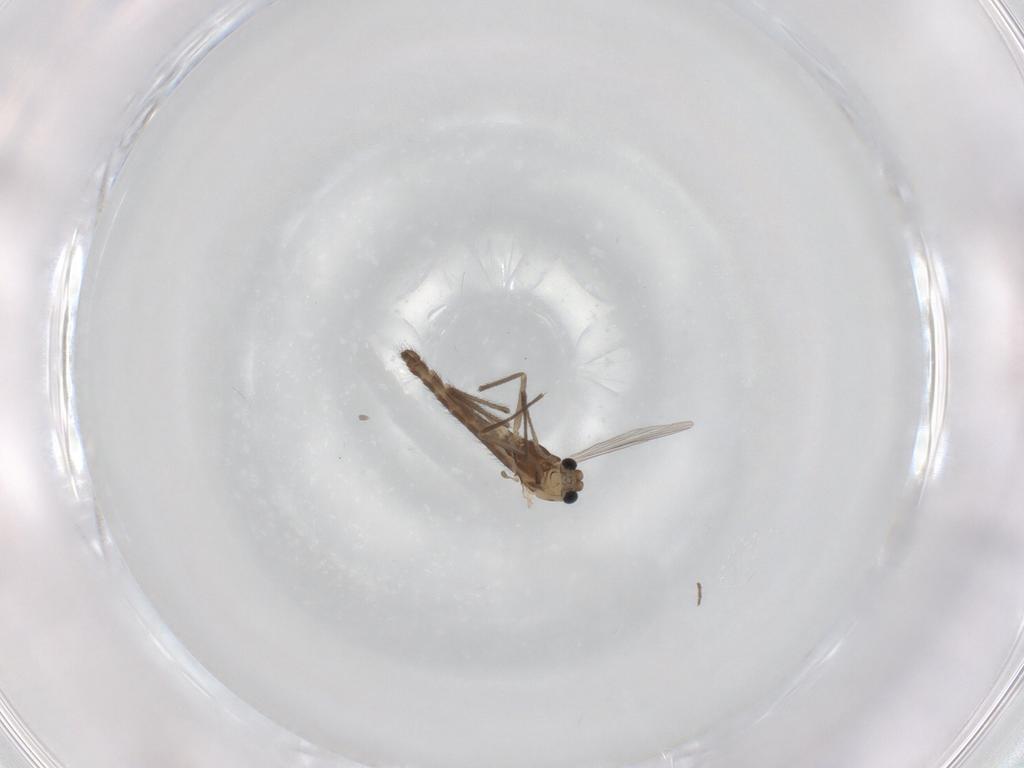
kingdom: Animalia
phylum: Arthropoda
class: Insecta
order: Diptera
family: Chironomidae
